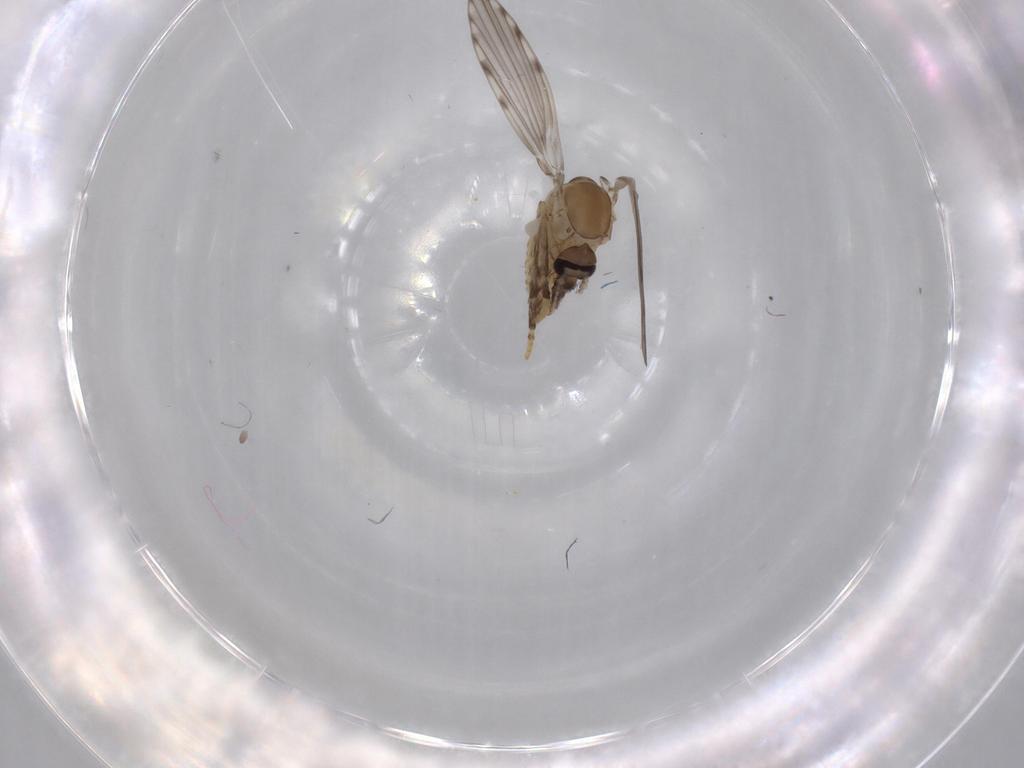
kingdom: Animalia
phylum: Arthropoda
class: Insecta
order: Diptera
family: Psychodidae
